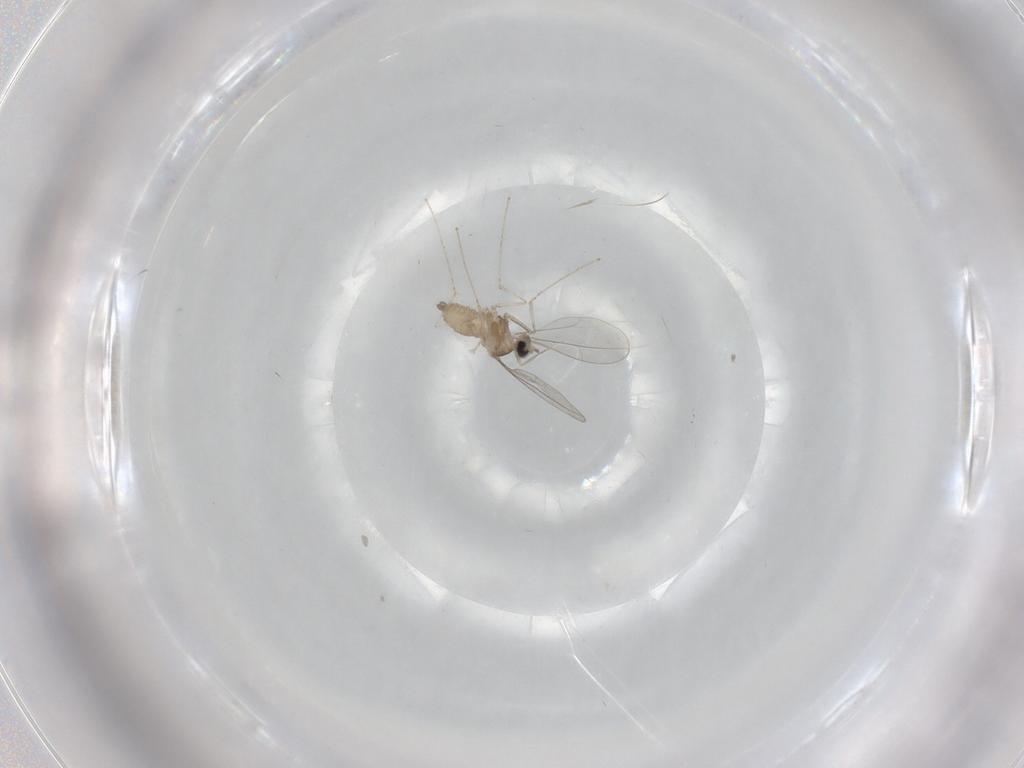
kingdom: Animalia
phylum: Arthropoda
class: Insecta
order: Diptera
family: Cecidomyiidae
